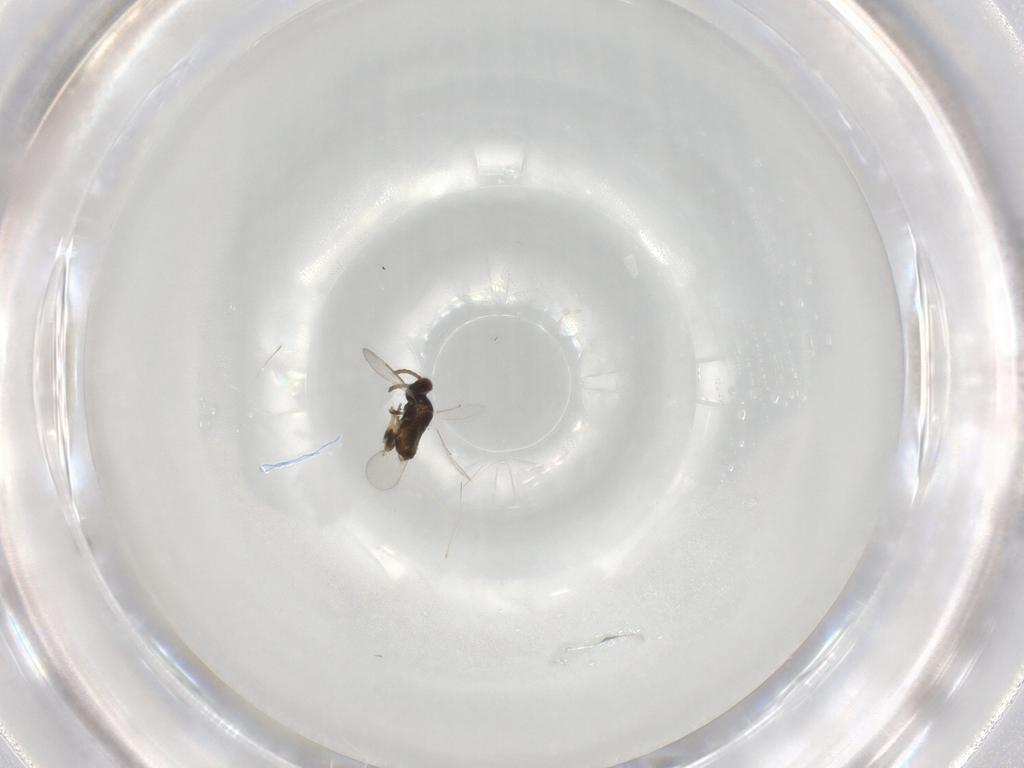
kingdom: Animalia
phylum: Arthropoda
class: Insecta
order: Hymenoptera
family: Aphelinidae
